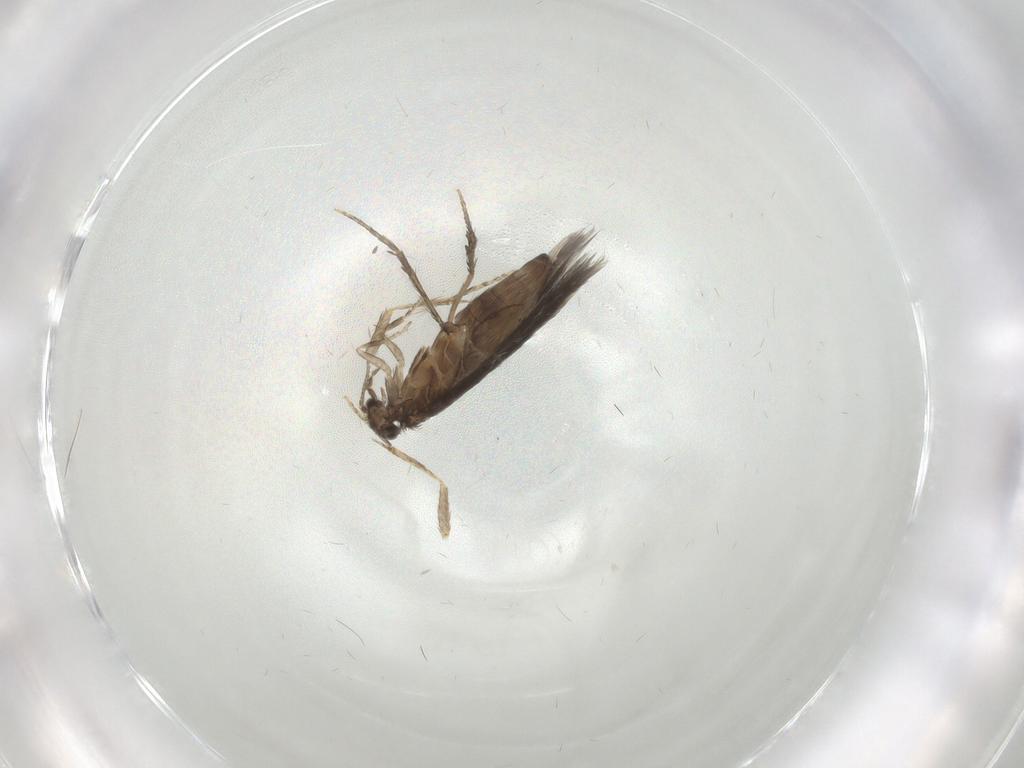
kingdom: Animalia
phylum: Arthropoda
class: Insecta
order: Trichoptera
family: Hydroptilidae
